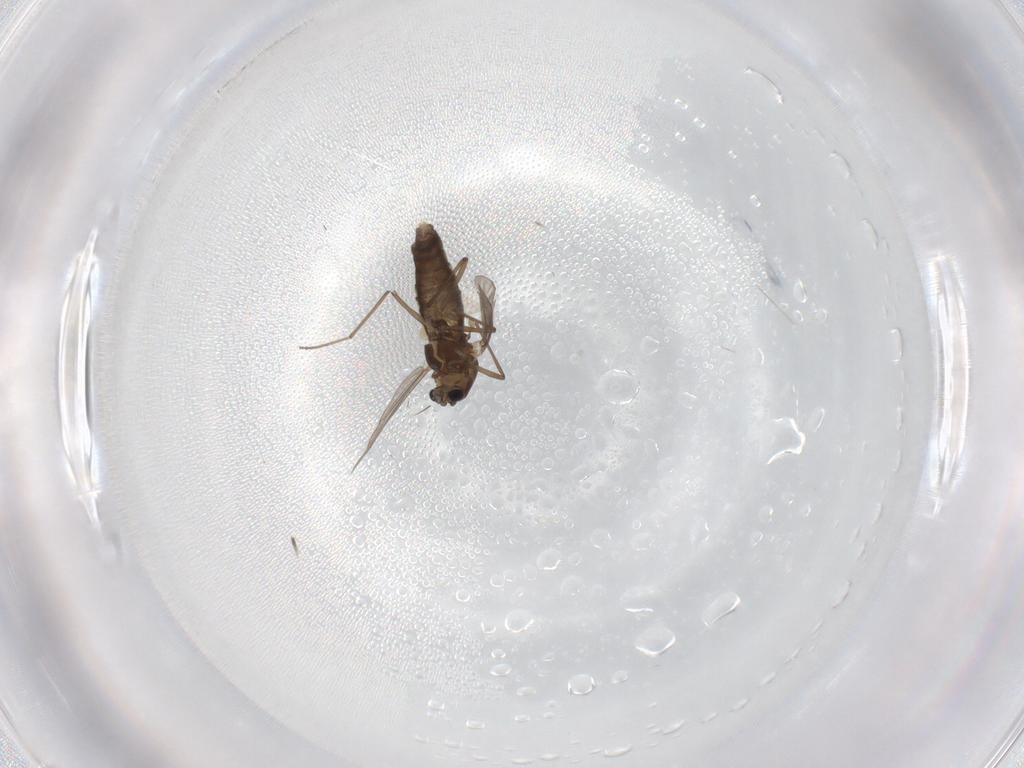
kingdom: Animalia
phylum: Arthropoda
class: Insecta
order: Diptera
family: Chironomidae
